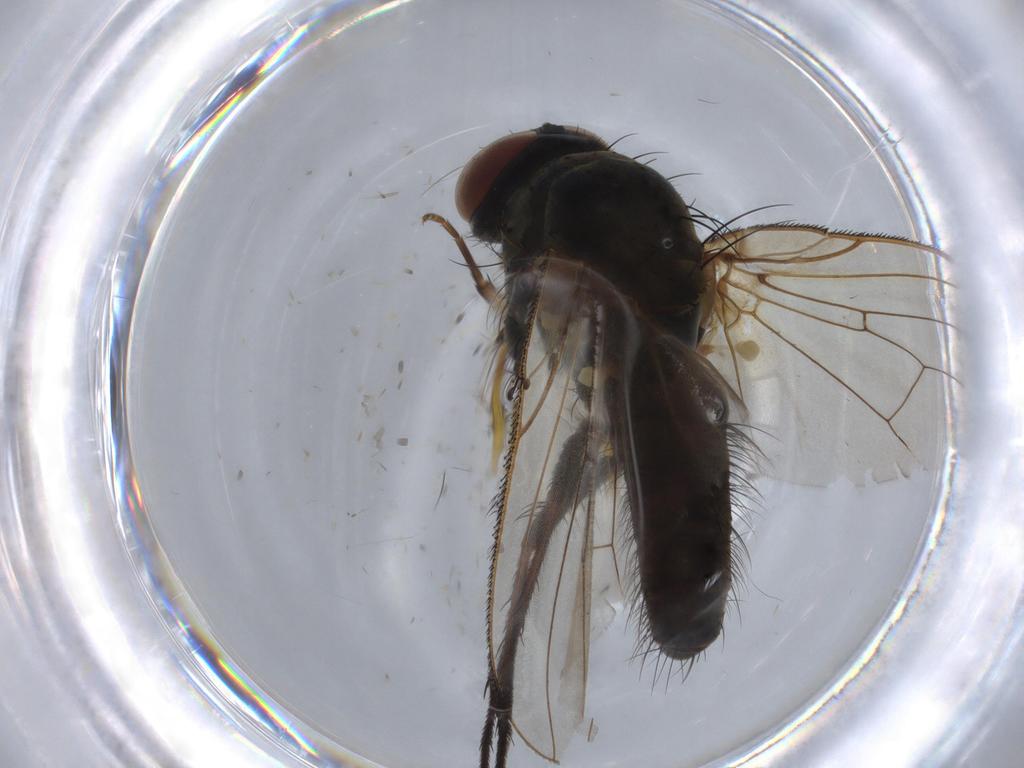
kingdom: Animalia
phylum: Arthropoda
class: Insecta
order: Diptera
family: Anthomyiidae
